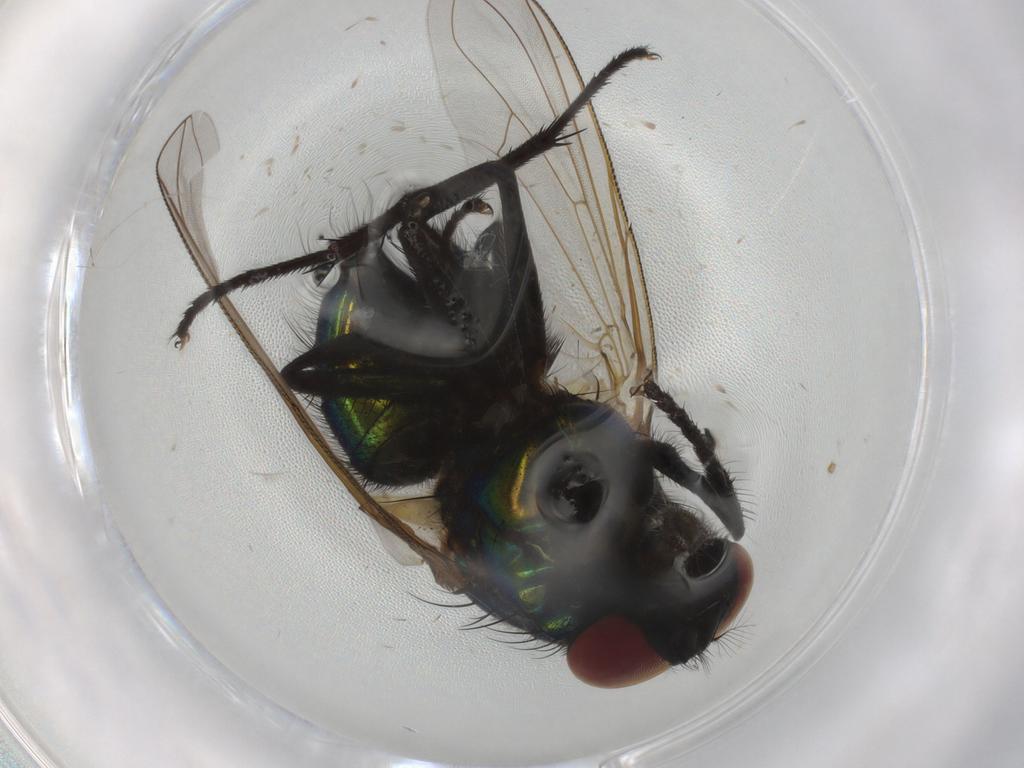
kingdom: Animalia
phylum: Arthropoda
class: Insecta
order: Diptera
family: Muscidae
